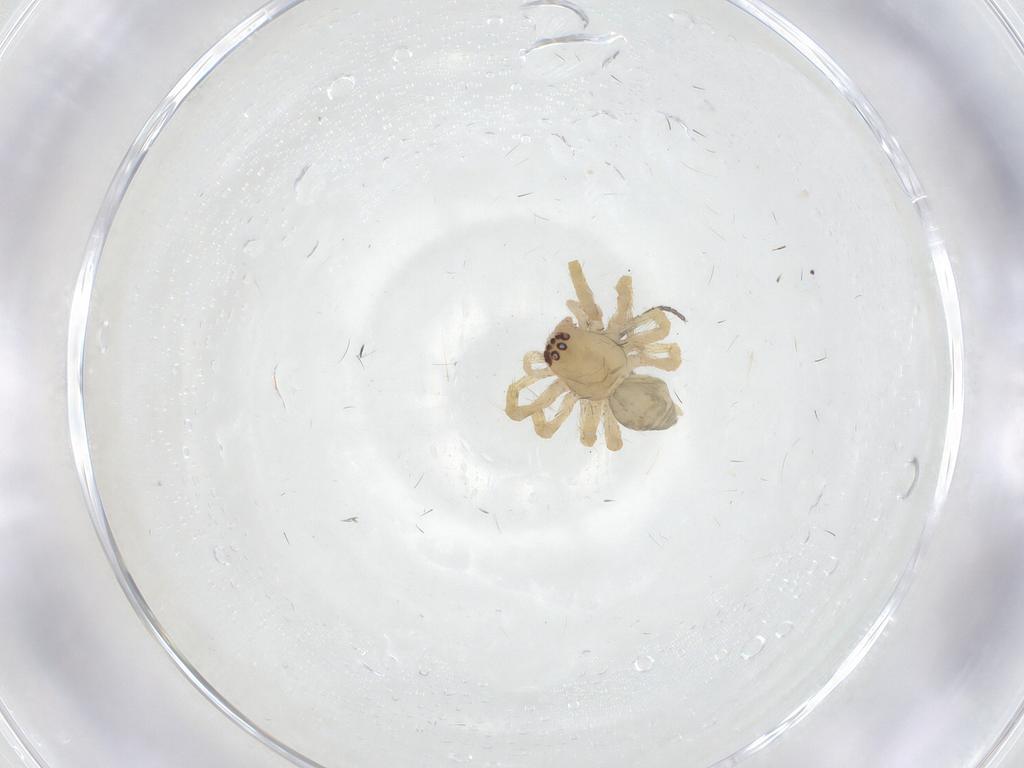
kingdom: Animalia
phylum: Arthropoda
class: Arachnida
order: Araneae
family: Desidae
